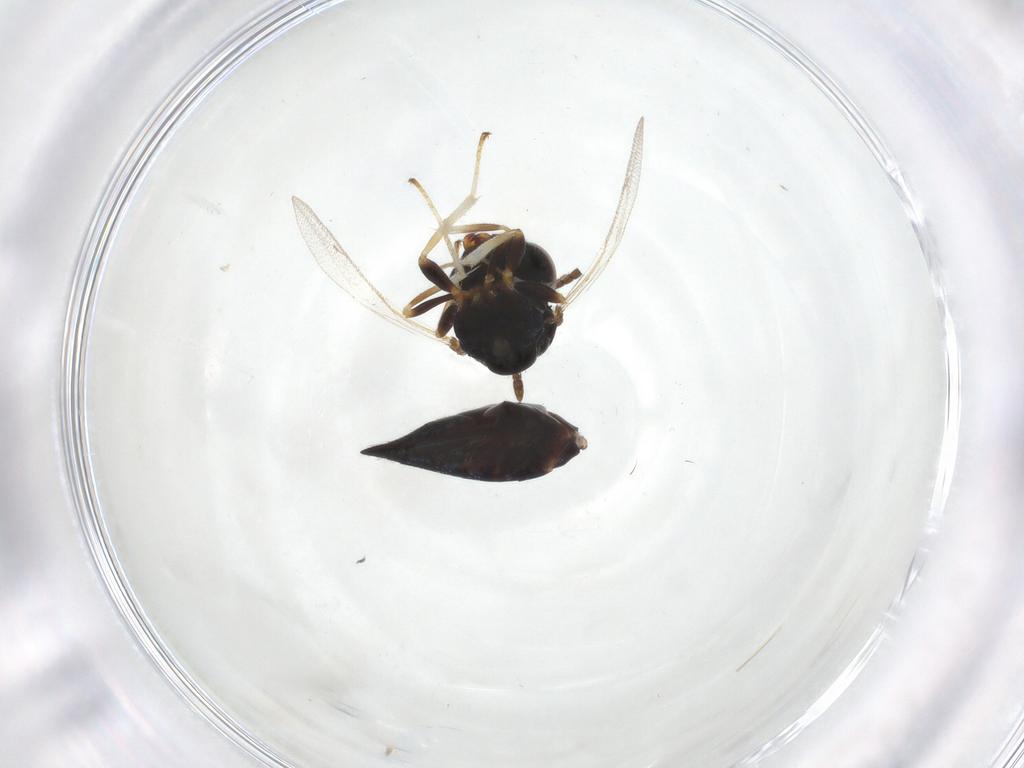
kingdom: Animalia
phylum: Arthropoda
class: Insecta
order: Hymenoptera
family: Pteromalidae
